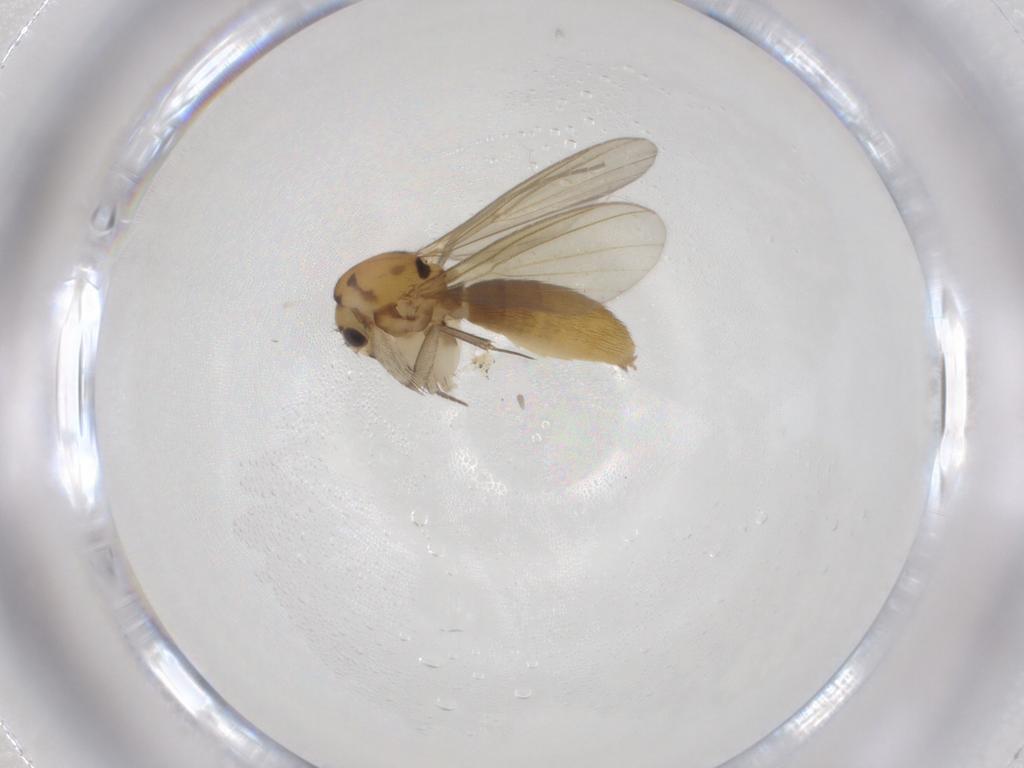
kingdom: Animalia
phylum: Arthropoda
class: Insecta
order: Diptera
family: Mycetophilidae
